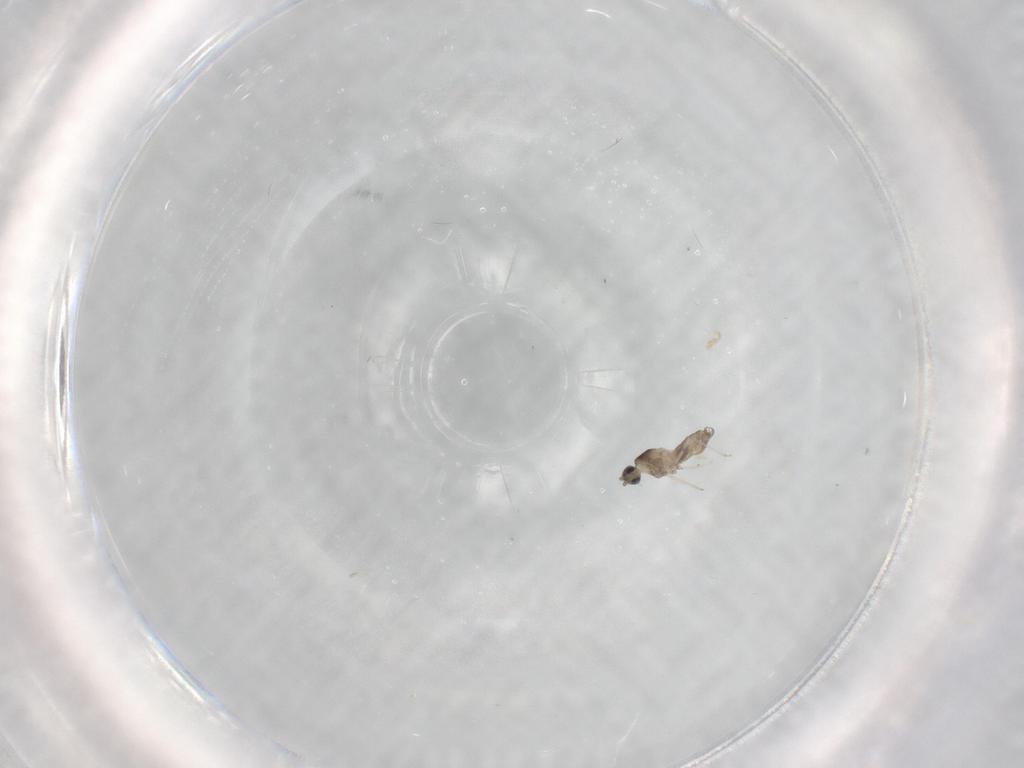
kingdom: Animalia
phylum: Arthropoda
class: Insecta
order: Diptera
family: Cecidomyiidae
